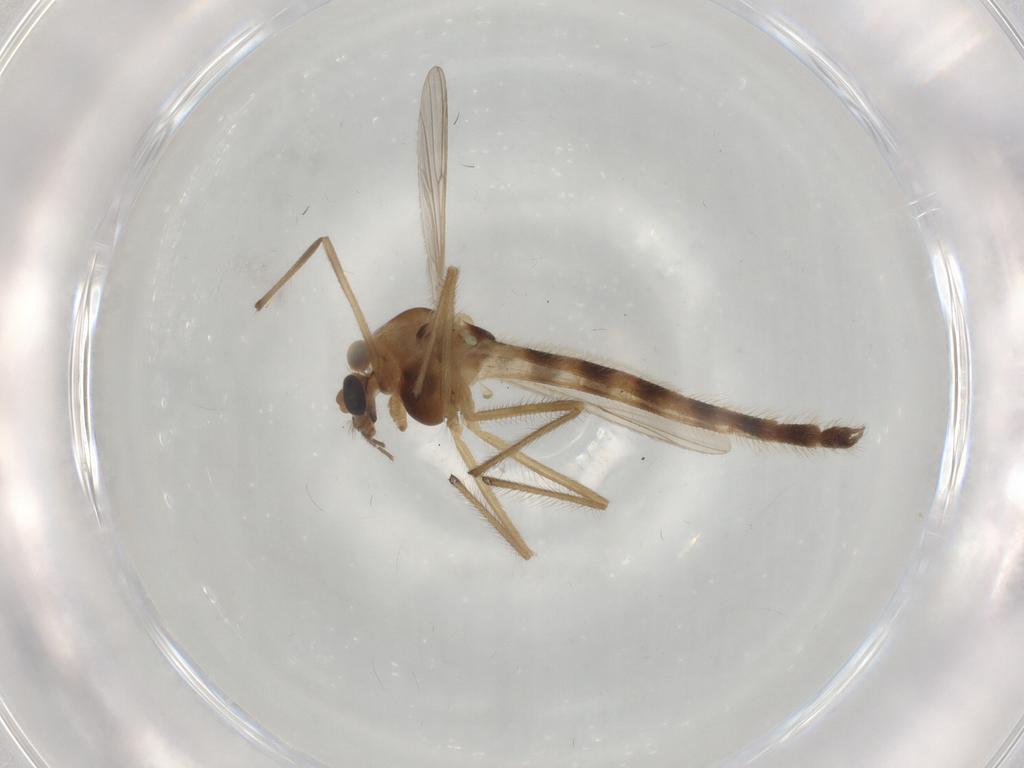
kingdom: Animalia
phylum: Arthropoda
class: Insecta
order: Diptera
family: Chironomidae
